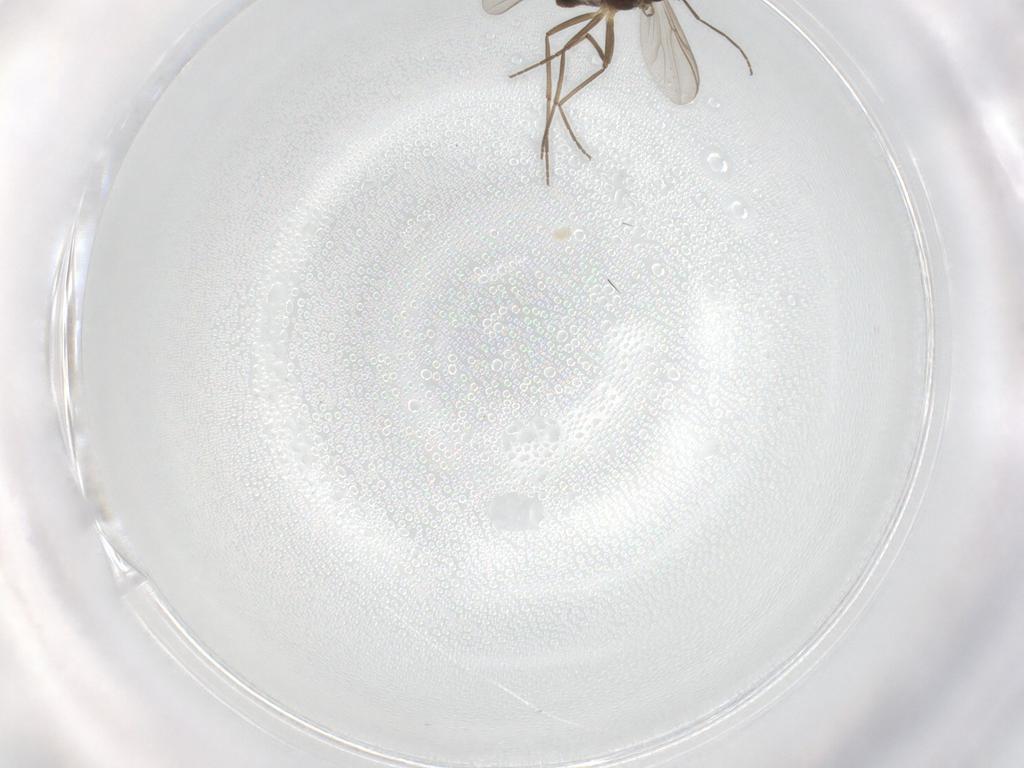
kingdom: Animalia
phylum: Arthropoda
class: Insecta
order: Diptera
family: Chironomidae
